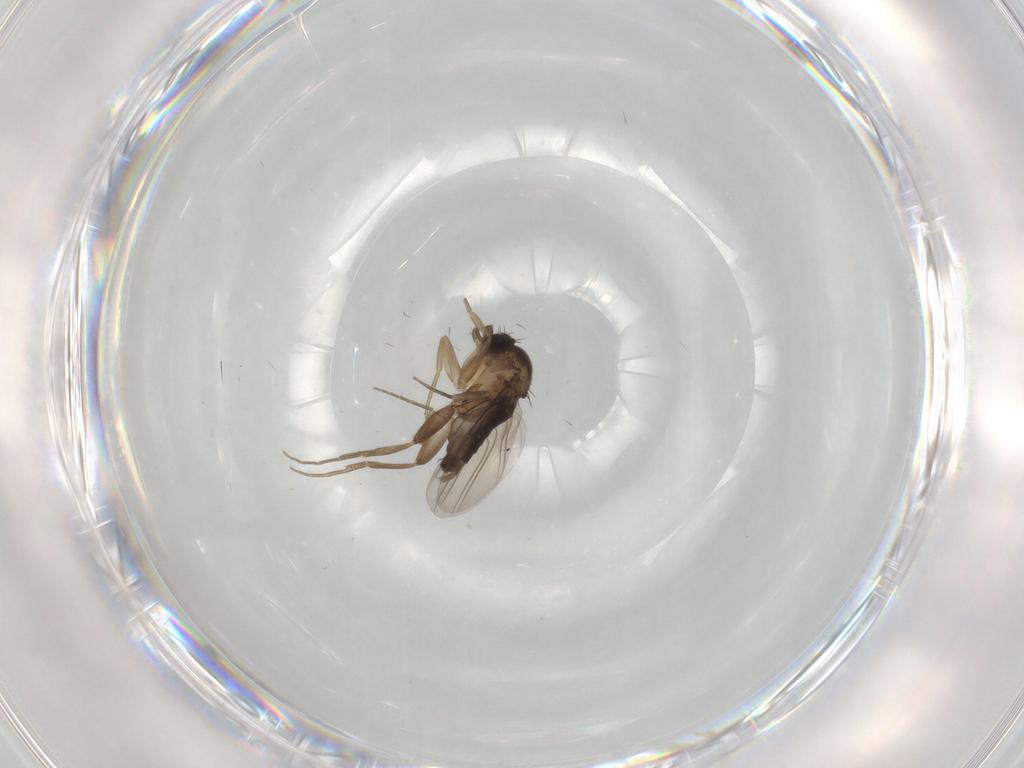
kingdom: Animalia
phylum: Arthropoda
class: Insecta
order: Diptera
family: Phoridae
